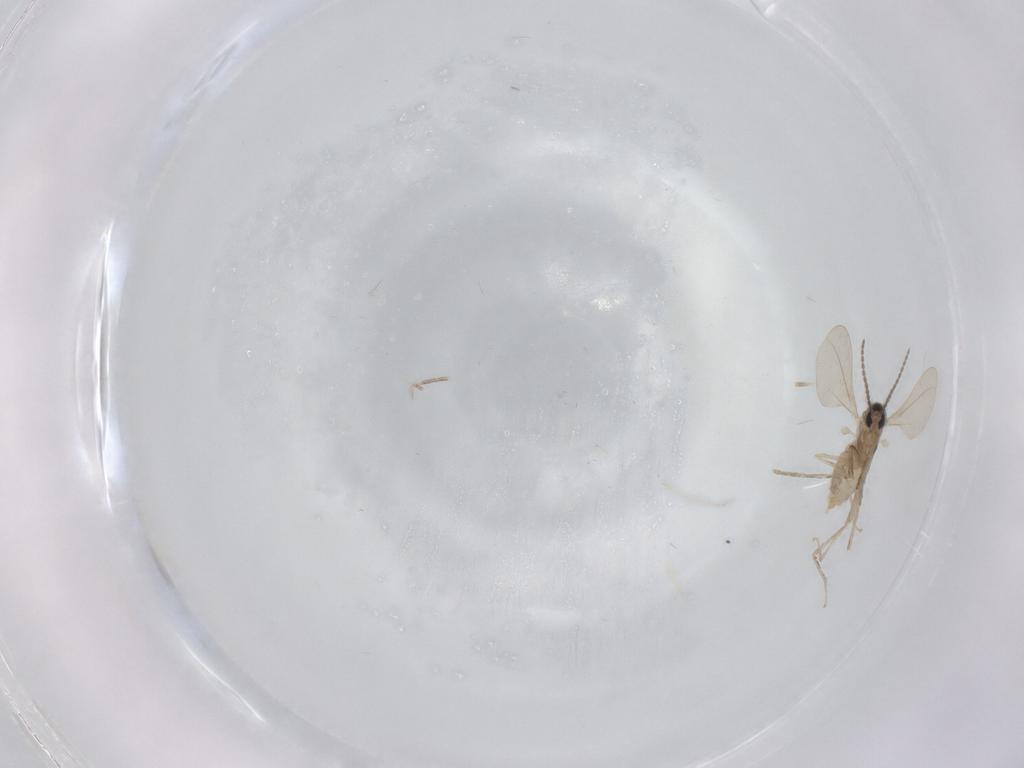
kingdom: Animalia
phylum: Arthropoda
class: Insecta
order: Diptera
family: Cecidomyiidae
